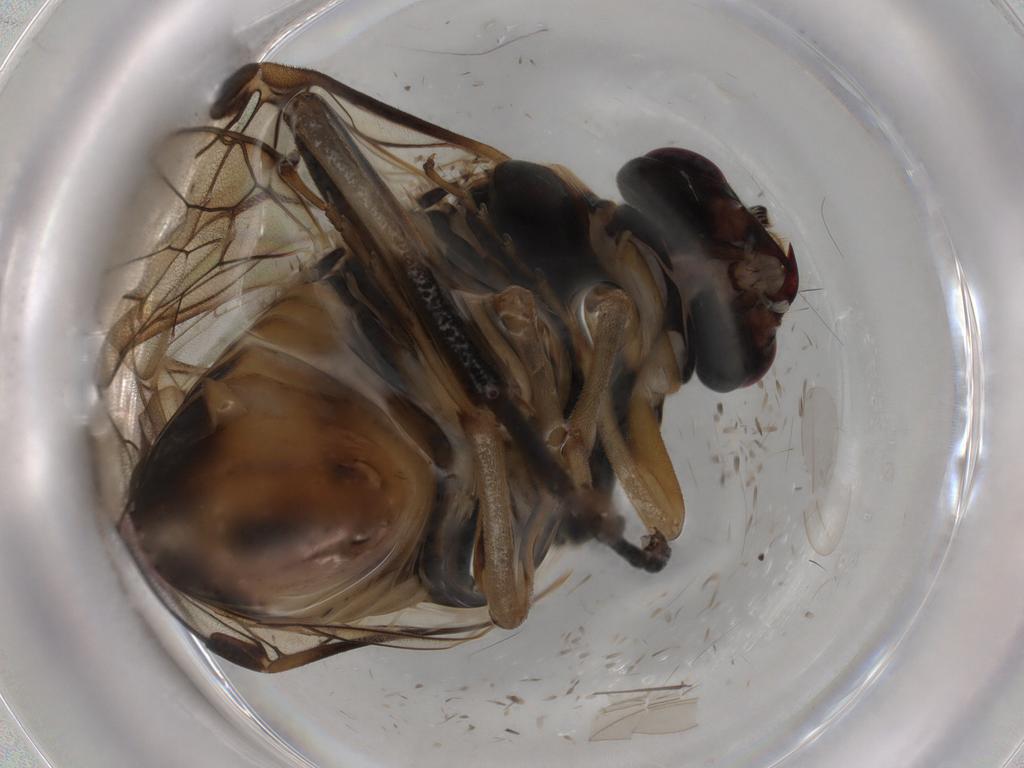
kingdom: Animalia
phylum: Arthropoda
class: Insecta
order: Hymenoptera
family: Tenthredinidae
